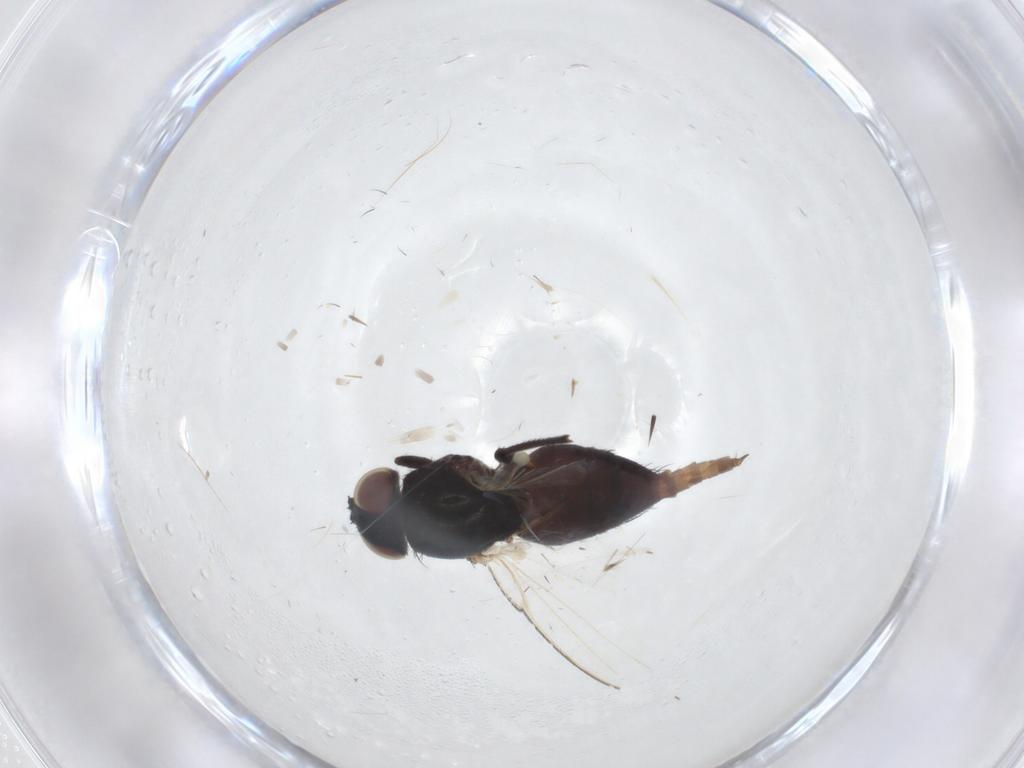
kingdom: Animalia
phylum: Arthropoda
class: Insecta
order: Diptera
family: Milichiidae
